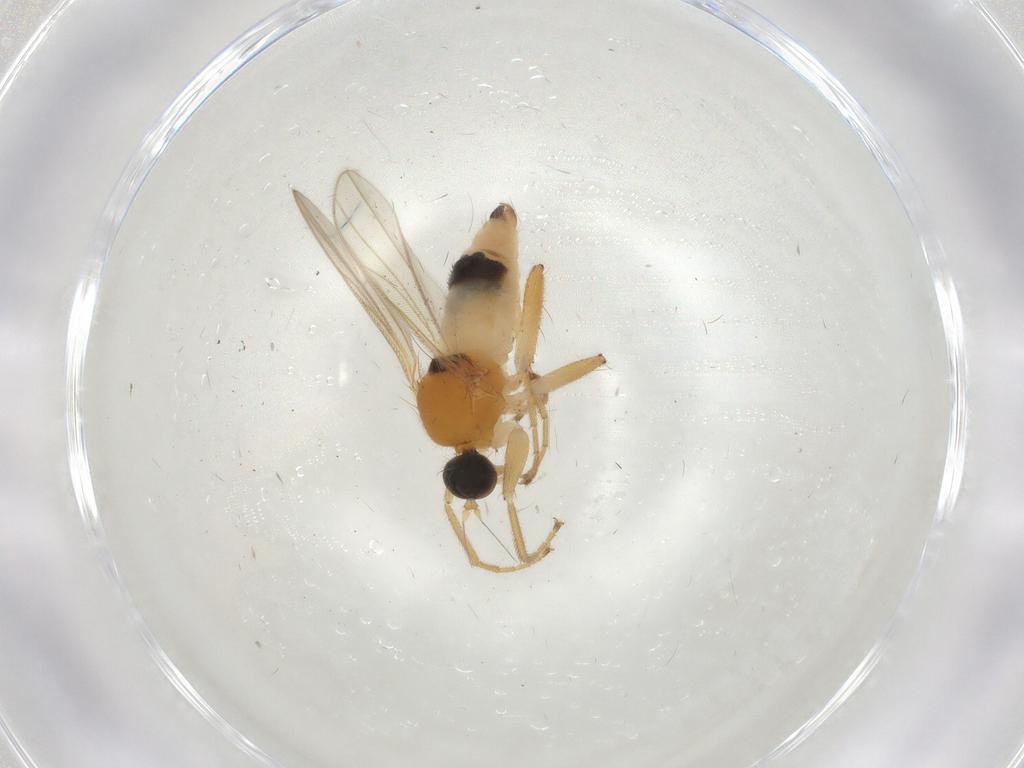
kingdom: Animalia
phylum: Arthropoda
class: Insecta
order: Diptera
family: Hybotidae
